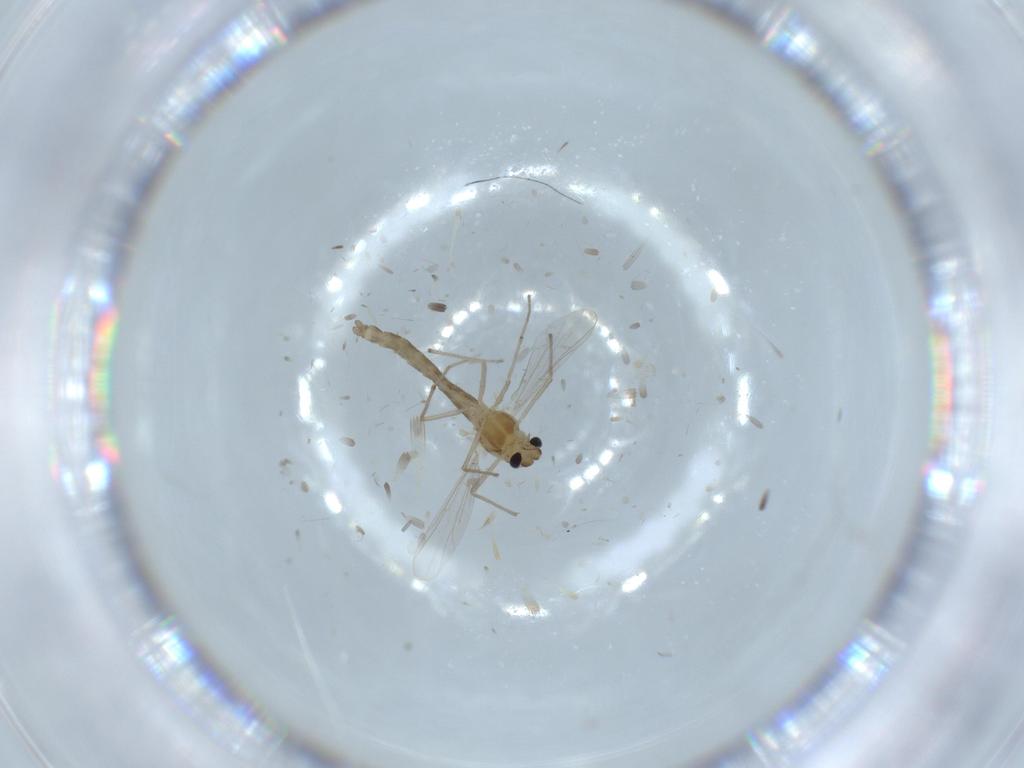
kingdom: Animalia
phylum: Arthropoda
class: Insecta
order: Diptera
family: Chironomidae
